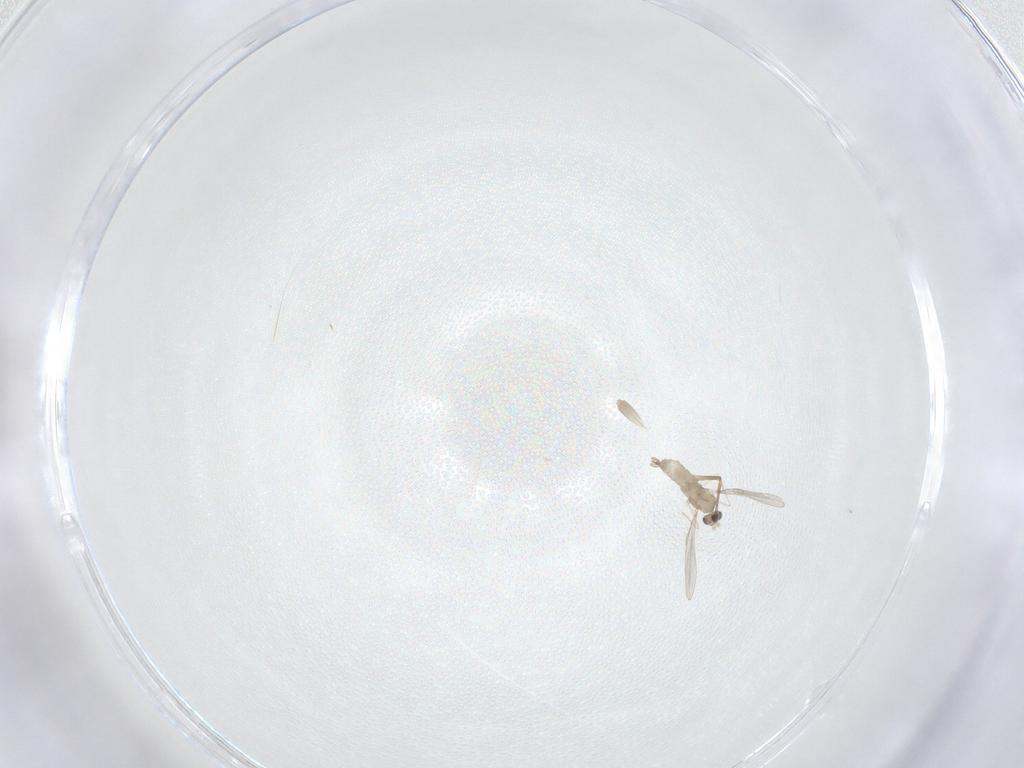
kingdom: Animalia
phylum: Arthropoda
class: Insecta
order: Diptera
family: Cecidomyiidae
